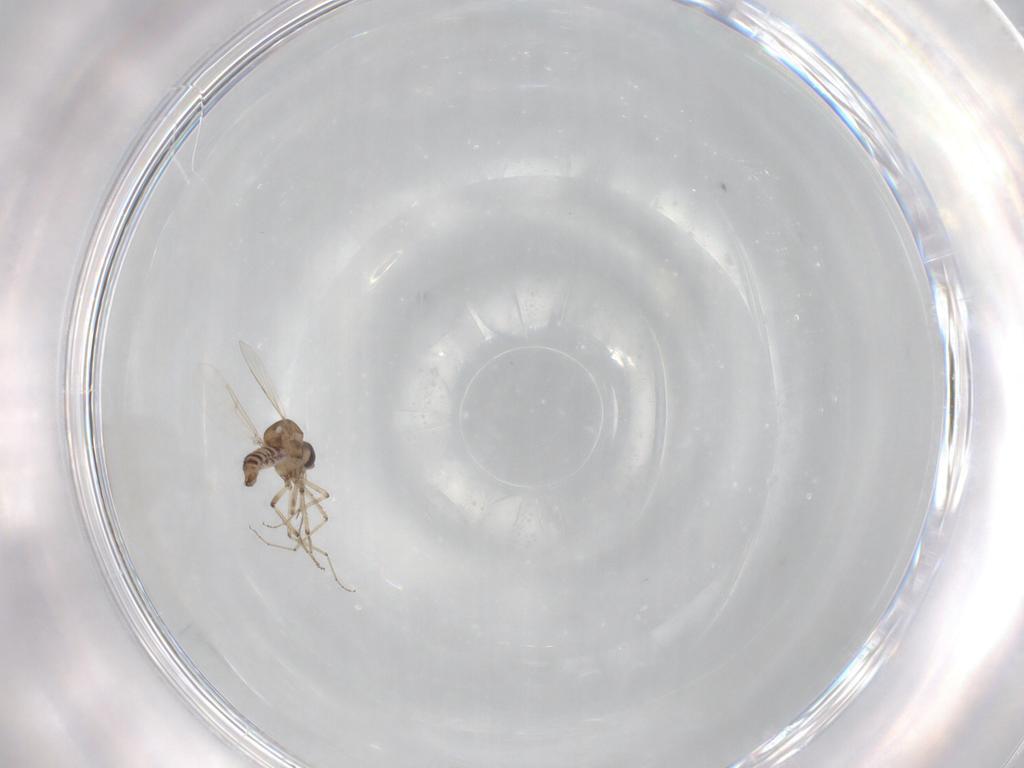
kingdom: Animalia
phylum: Arthropoda
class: Insecta
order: Diptera
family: Ceratopogonidae
